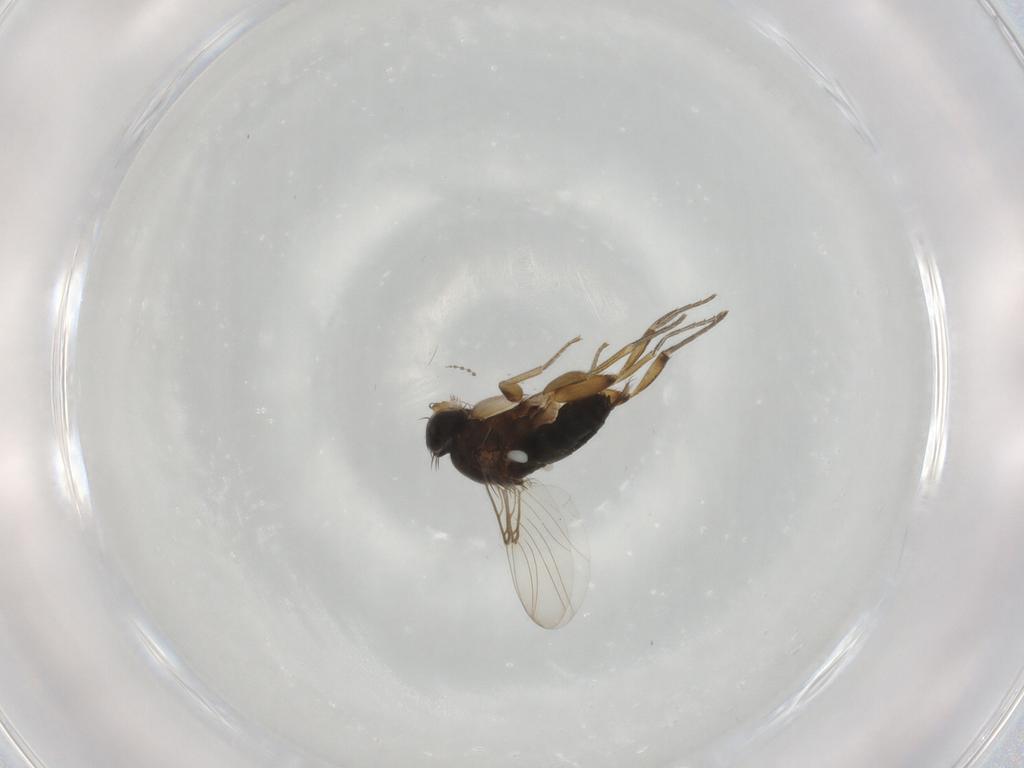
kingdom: Animalia
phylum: Arthropoda
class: Insecta
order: Diptera
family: Phoridae
